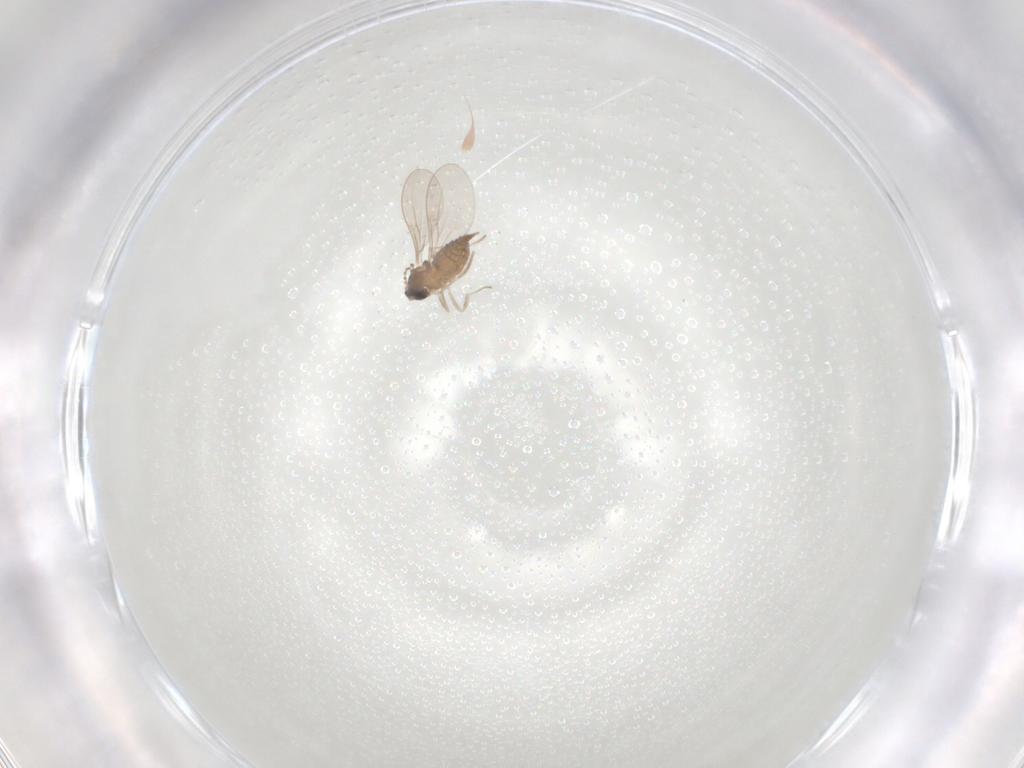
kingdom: Animalia
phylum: Arthropoda
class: Insecta
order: Diptera
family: Cecidomyiidae
